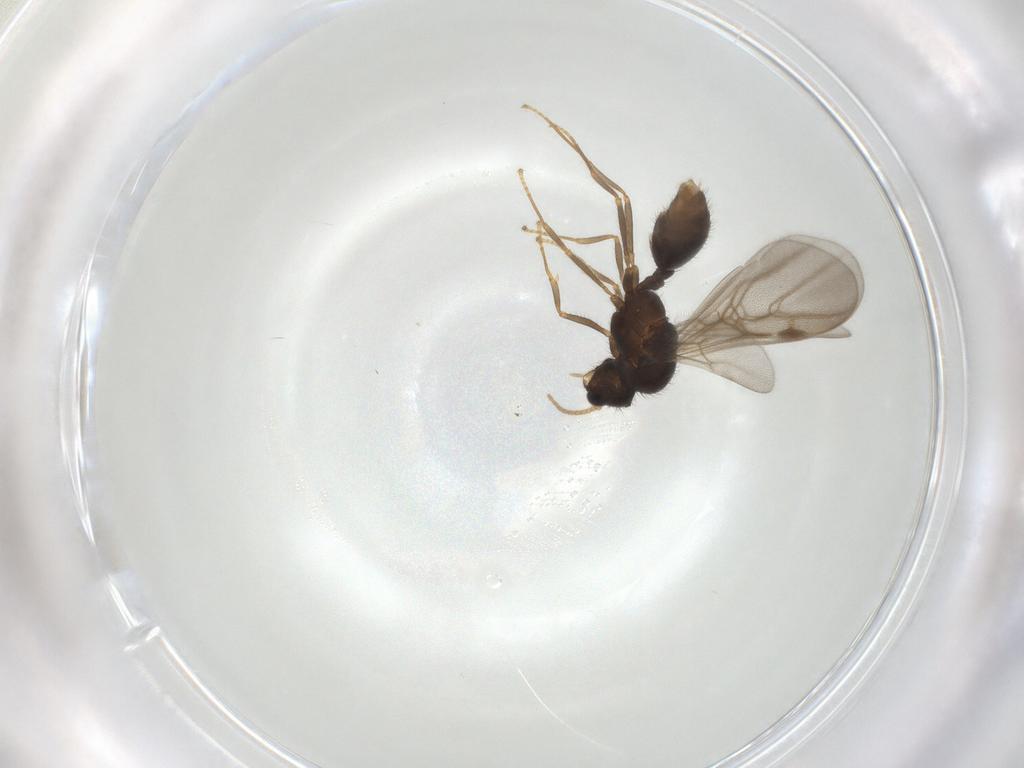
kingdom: Animalia
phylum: Arthropoda
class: Insecta
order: Hymenoptera
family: Formicidae
